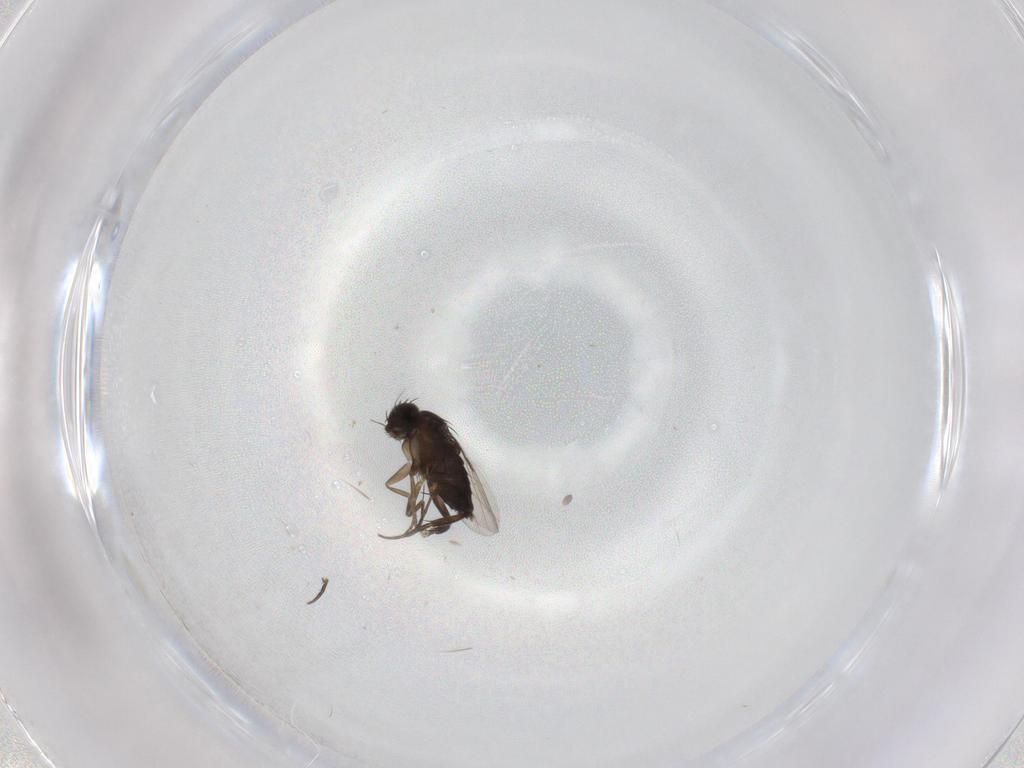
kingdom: Animalia
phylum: Arthropoda
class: Insecta
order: Diptera
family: Phoridae
